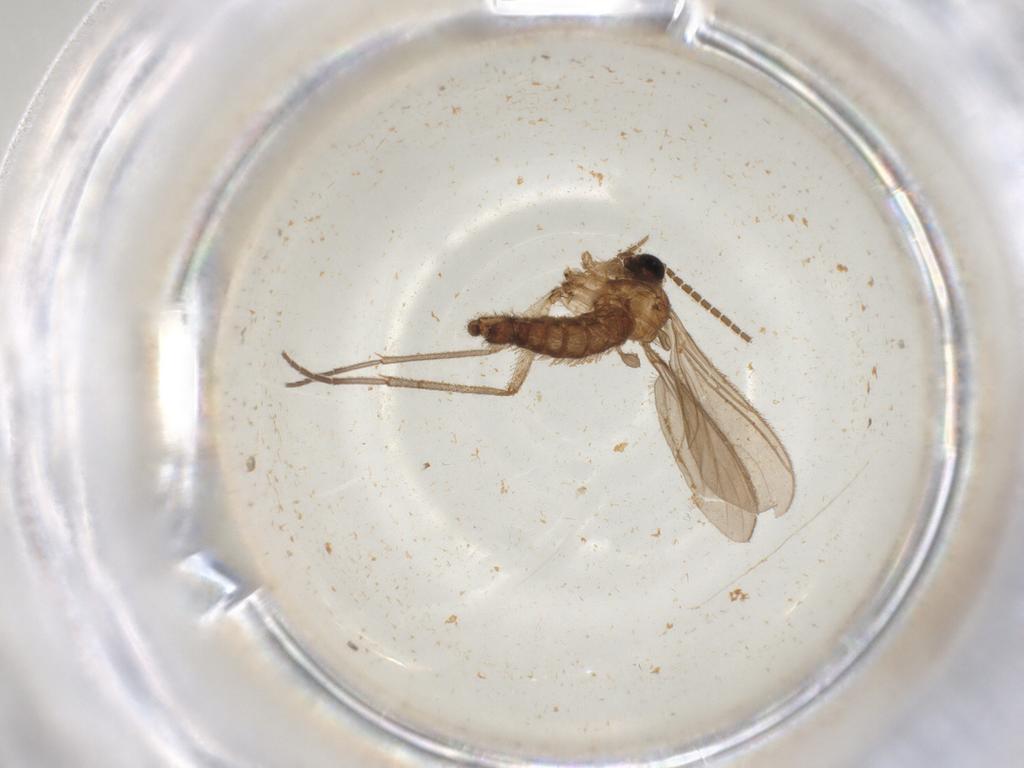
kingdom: Animalia
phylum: Arthropoda
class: Insecta
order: Diptera
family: Sciaridae
